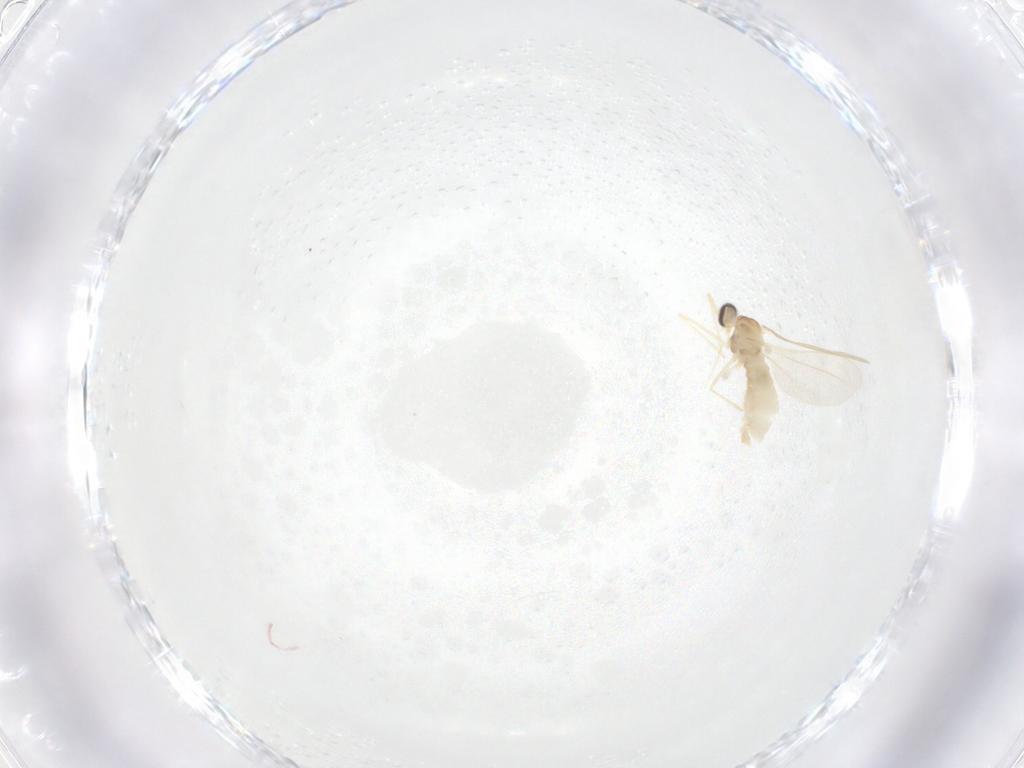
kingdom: Animalia
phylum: Arthropoda
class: Insecta
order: Diptera
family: Cecidomyiidae
